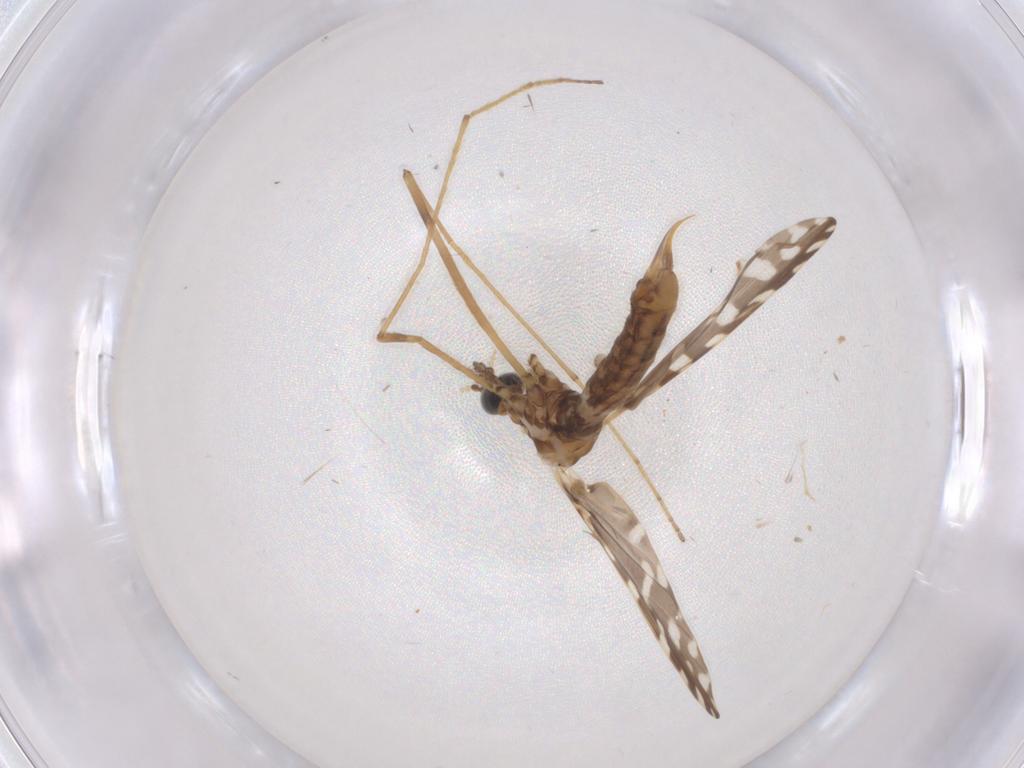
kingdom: Animalia
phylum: Arthropoda
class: Insecta
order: Diptera
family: Limoniidae
